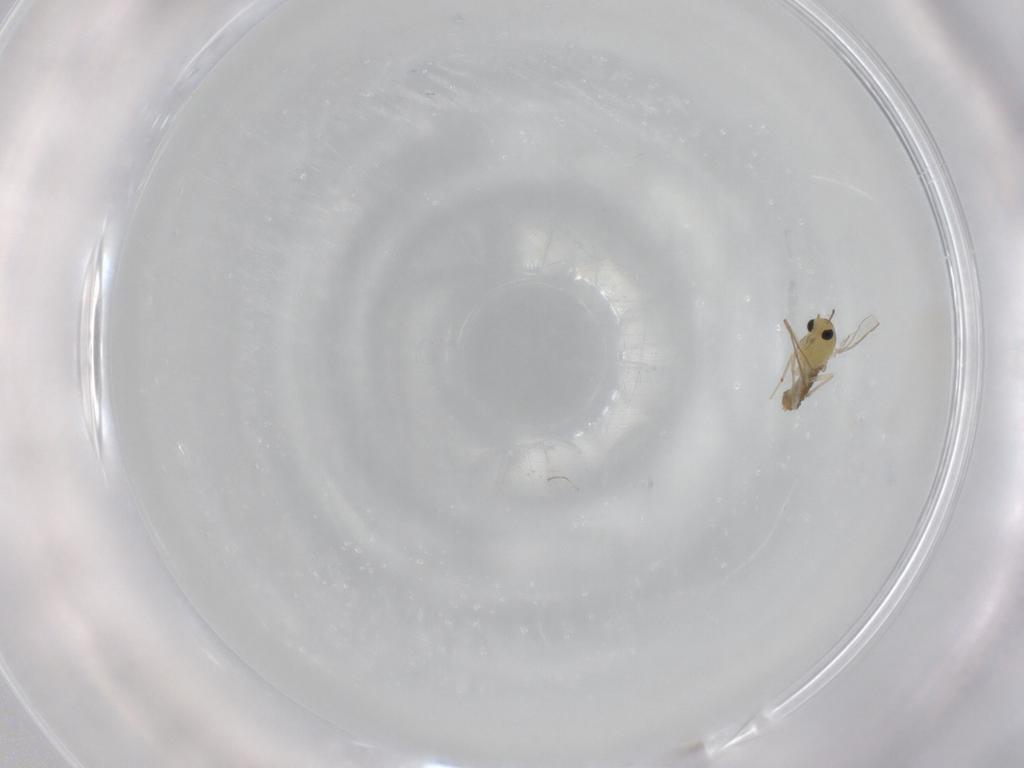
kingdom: Animalia
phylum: Arthropoda
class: Insecta
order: Diptera
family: Chironomidae
